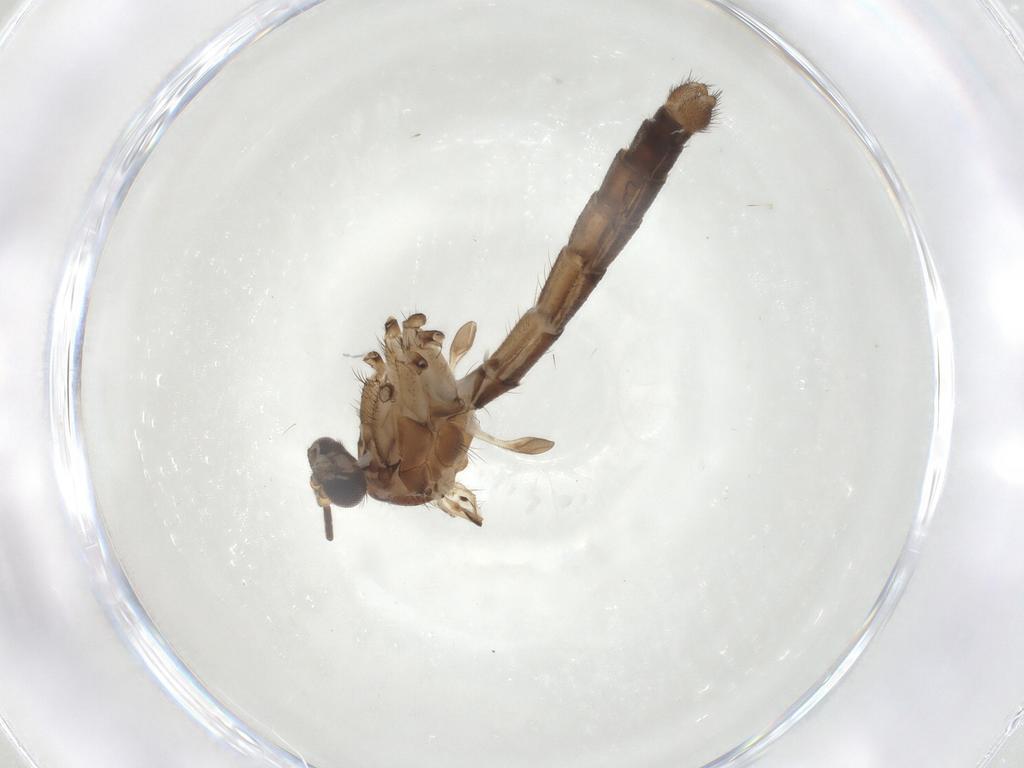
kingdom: Animalia
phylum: Arthropoda
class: Insecta
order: Diptera
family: Mycetophilidae
